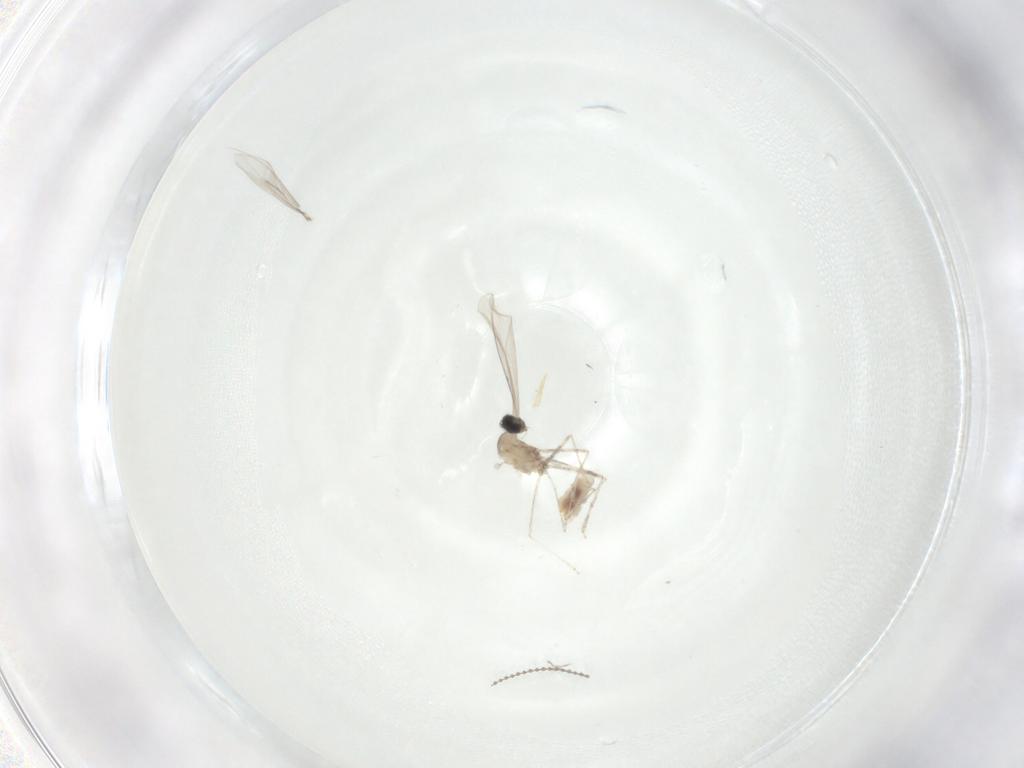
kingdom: Animalia
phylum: Arthropoda
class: Insecta
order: Diptera
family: Cecidomyiidae
